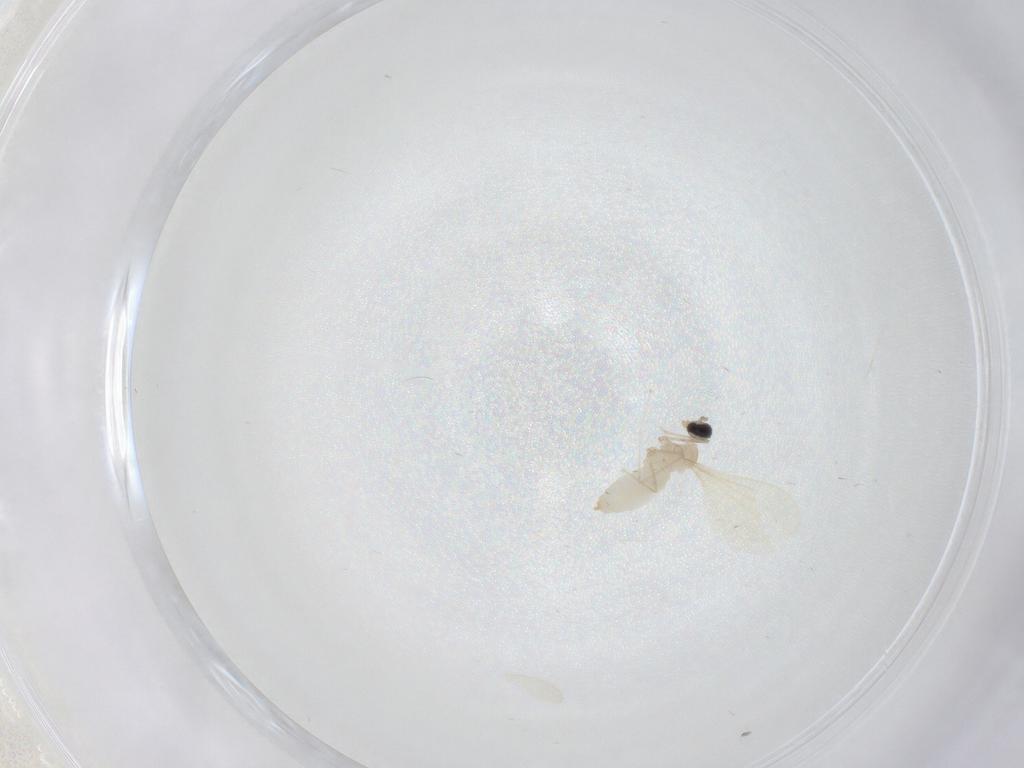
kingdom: Animalia
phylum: Arthropoda
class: Insecta
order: Diptera
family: Cecidomyiidae
